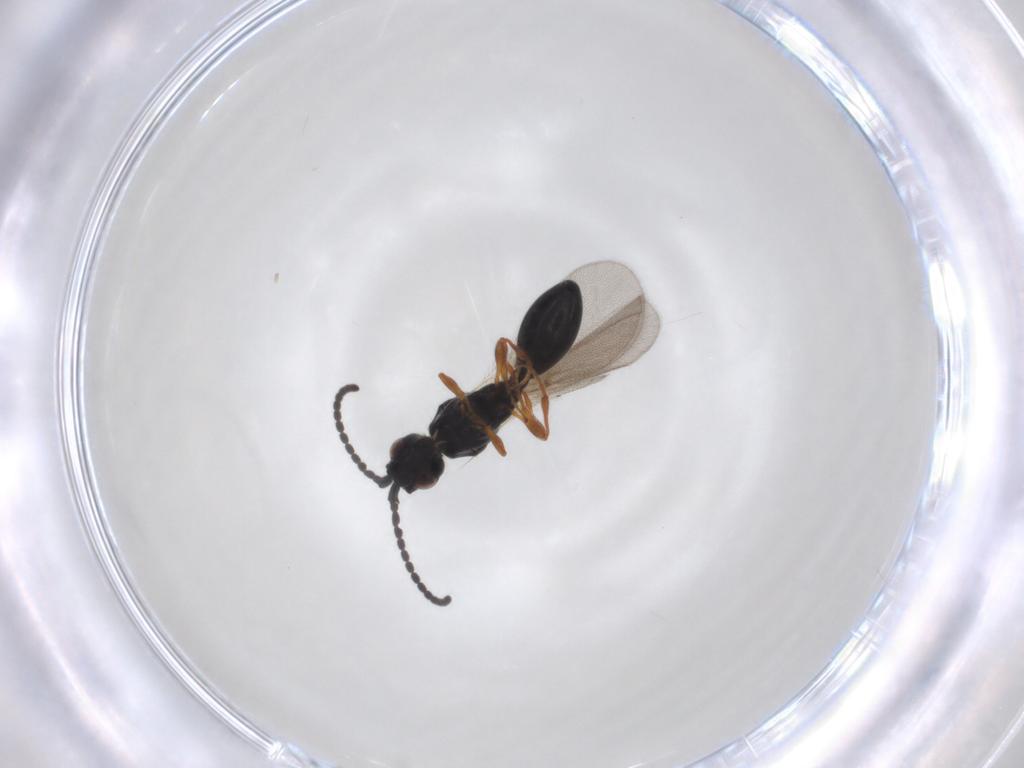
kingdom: Animalia
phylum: Arthropoda
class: Insecta
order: Hymenoptera
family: Diapriidae
